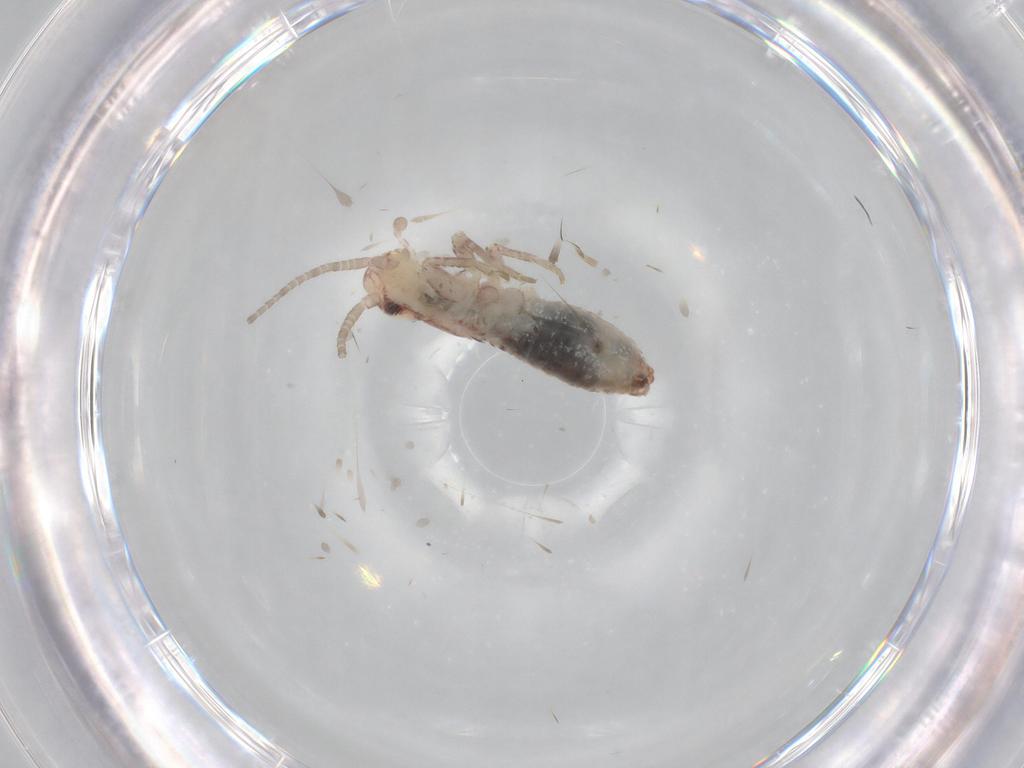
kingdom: Animalia
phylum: Arthropoda
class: Insecta
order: Orthoptera
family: Mogoplistidae
